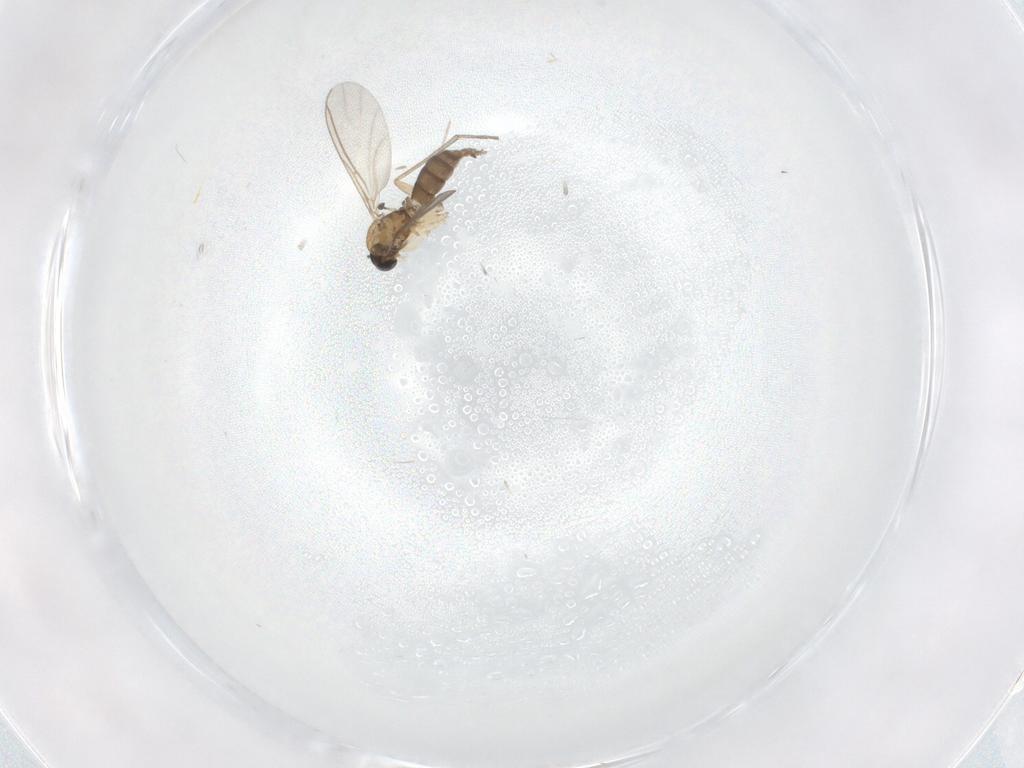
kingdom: Animalia
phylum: Arthropoda
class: Insecta
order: Diptera
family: Sciaridae
